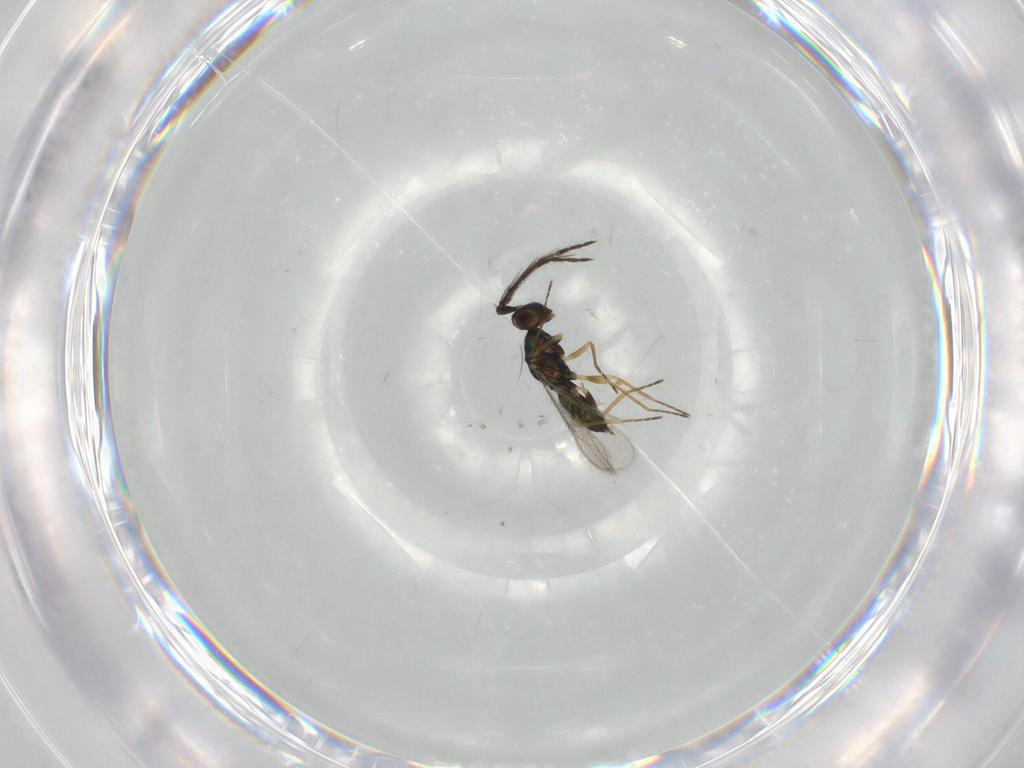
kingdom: Animalia
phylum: Arthropoda
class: Insecta
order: Hymenoptera
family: Eulophidae
